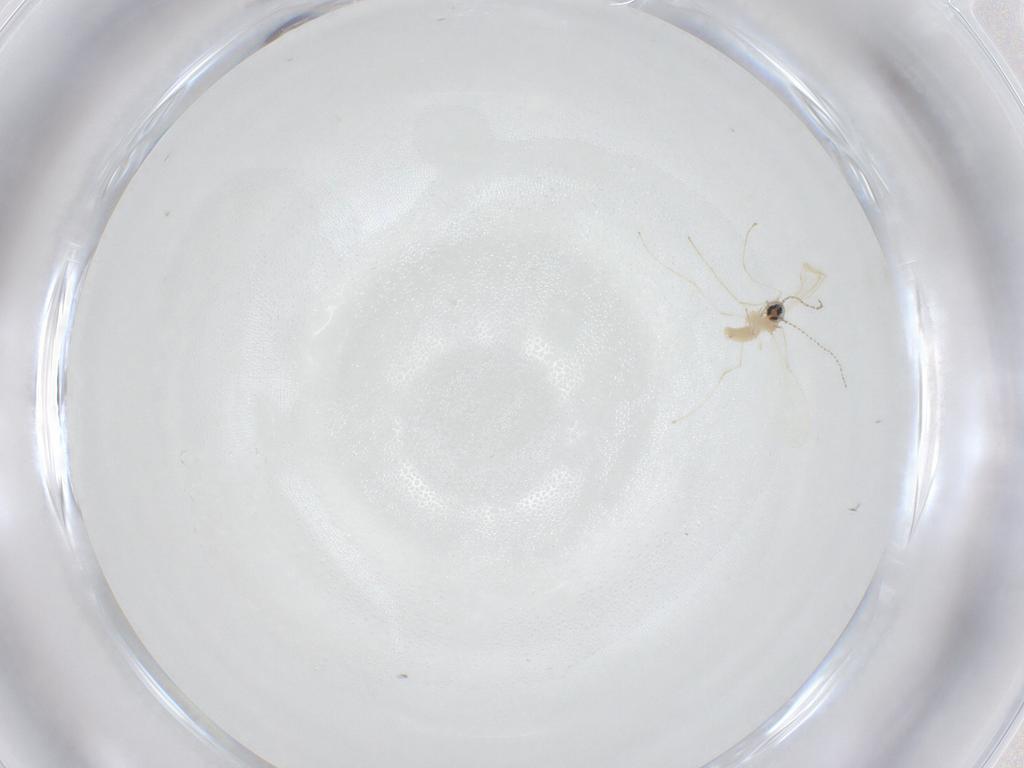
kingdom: Animalia
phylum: Arthropoda
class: Insecta
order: Diptera
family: Cecidomyiidae
